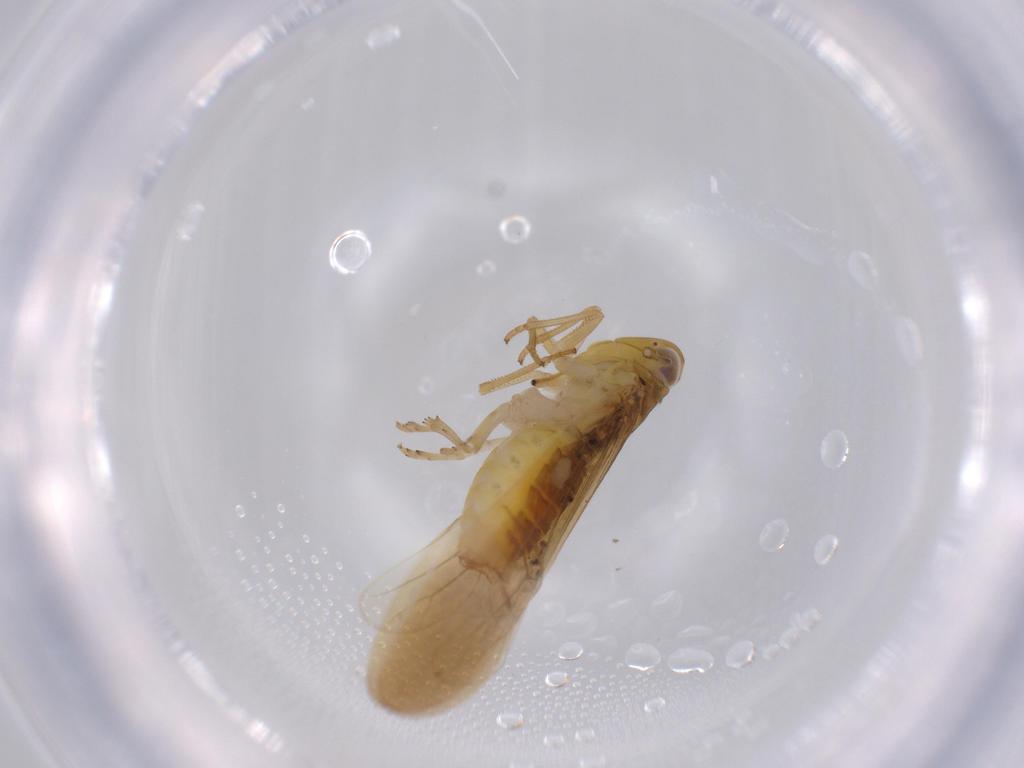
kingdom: Animalia
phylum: Arthropoda
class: Insecta
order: Hemiptera
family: Delphacidae
